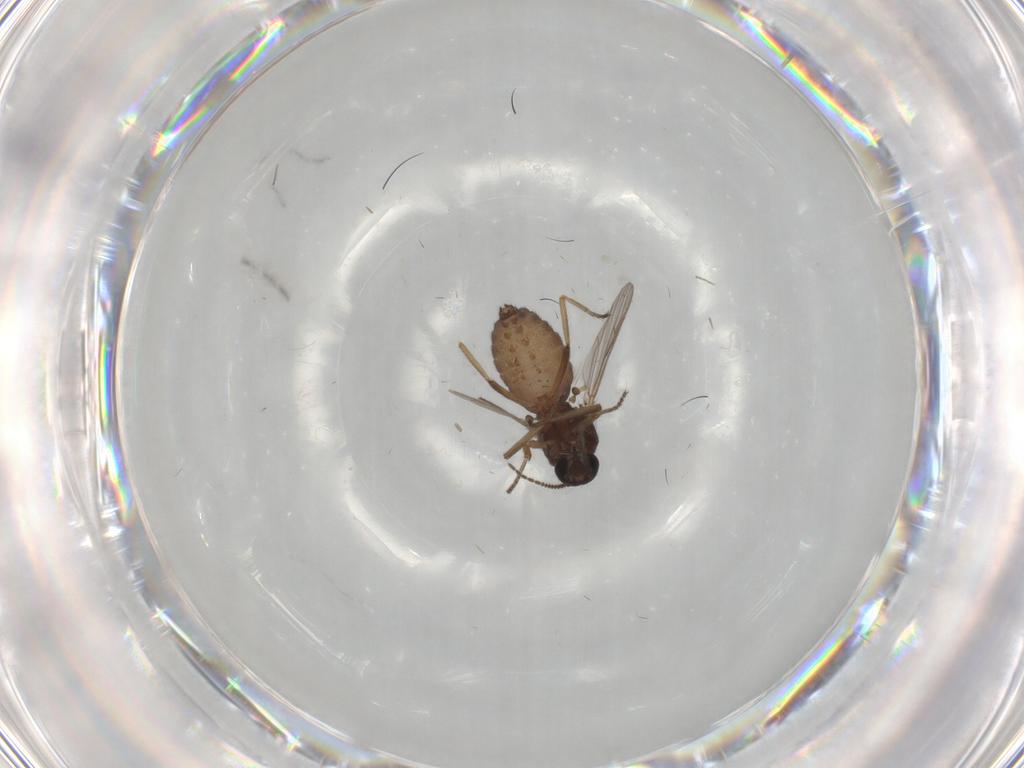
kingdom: Animalia
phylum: Arthropoda
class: Insecta
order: Diptera
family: Ceratopogonidae
